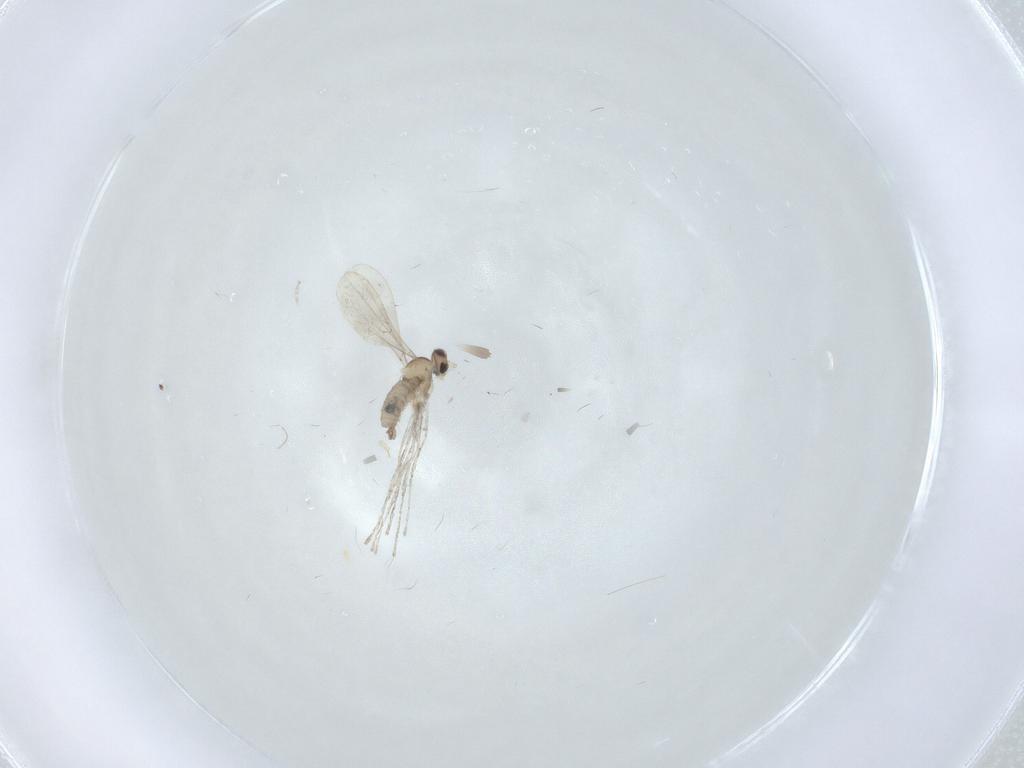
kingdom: Animalia
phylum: Arthropoda
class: Insecta
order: Diptera
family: Cecidomyiidae
